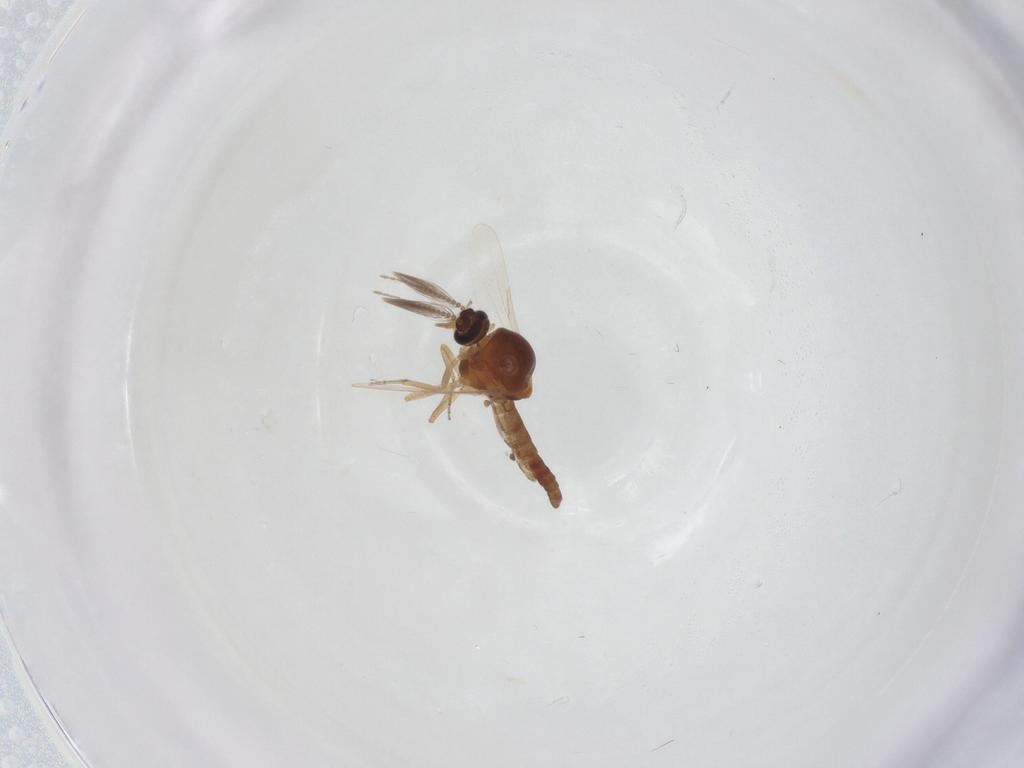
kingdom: Animalia
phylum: Arthropoda
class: Insecta
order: Diptera
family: Ceratopogonidae
